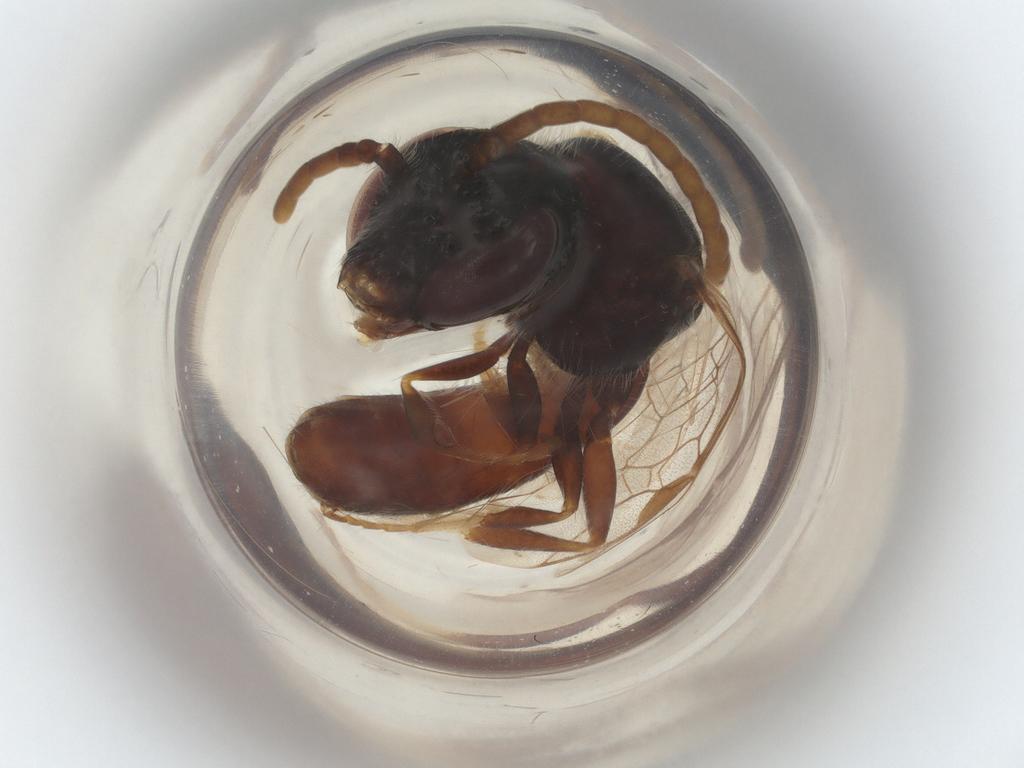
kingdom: Animalia
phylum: Arthropoda
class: Insecta
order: Hymenoptera
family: Halictidae
